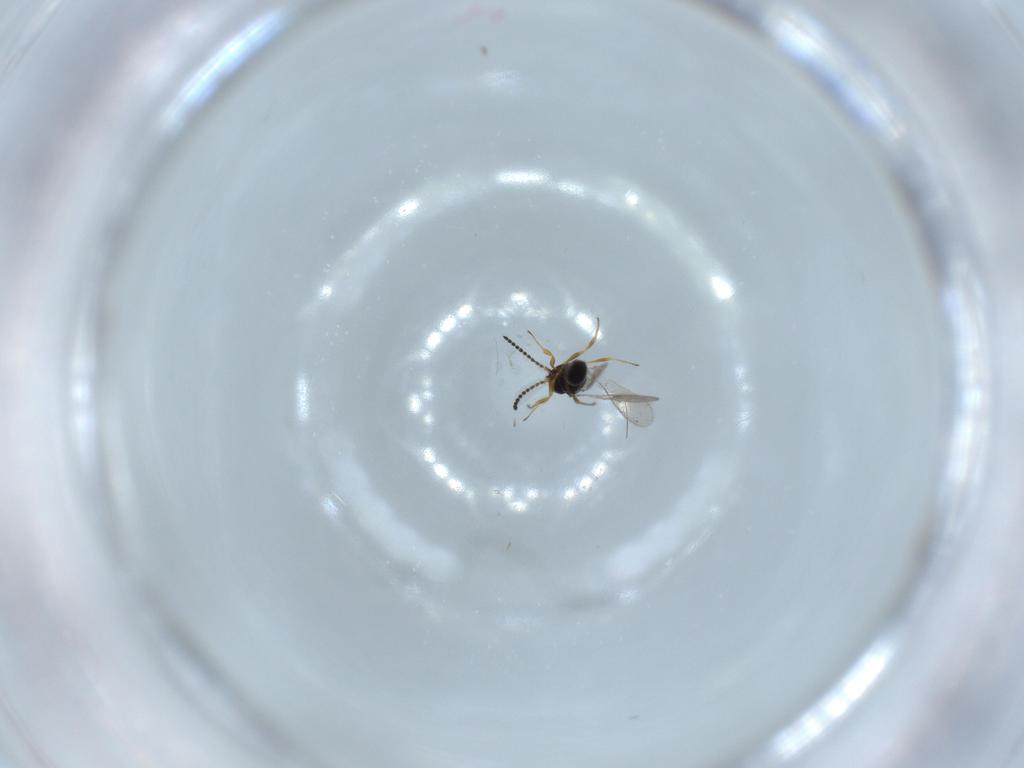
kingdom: Animalia
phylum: Arthropoda
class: Insecta
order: Hymenoptera
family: Scelionidae
